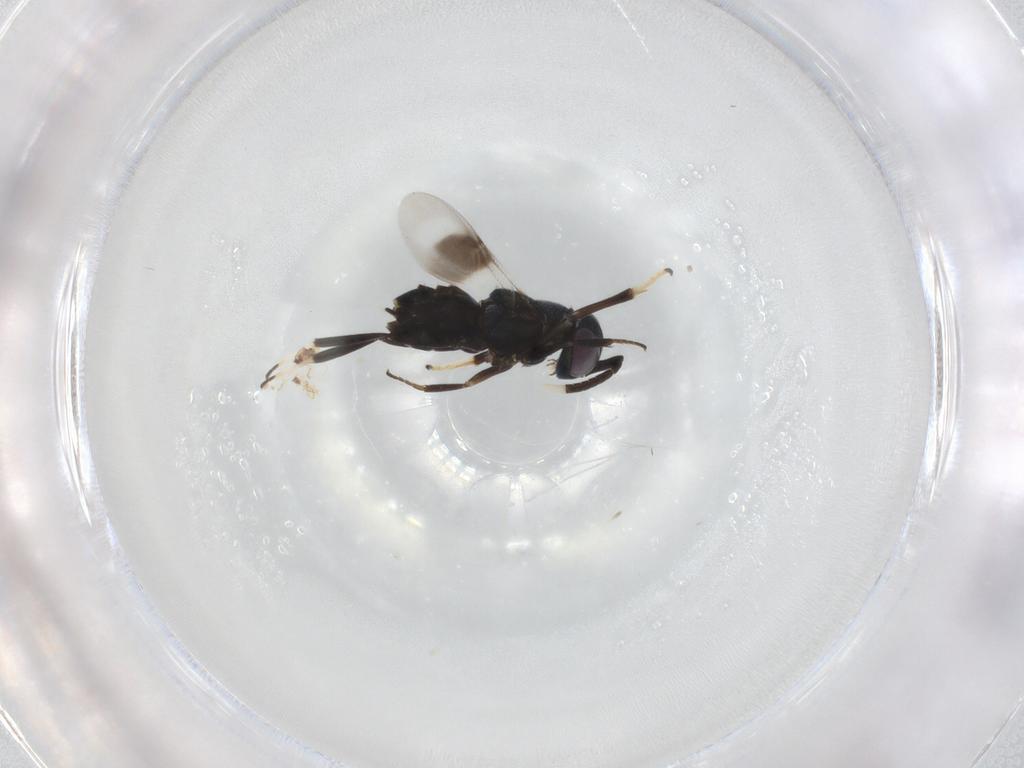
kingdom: Animalia
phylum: Arthropoda
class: Insecta
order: Hymenoptera
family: Encyrtidae
